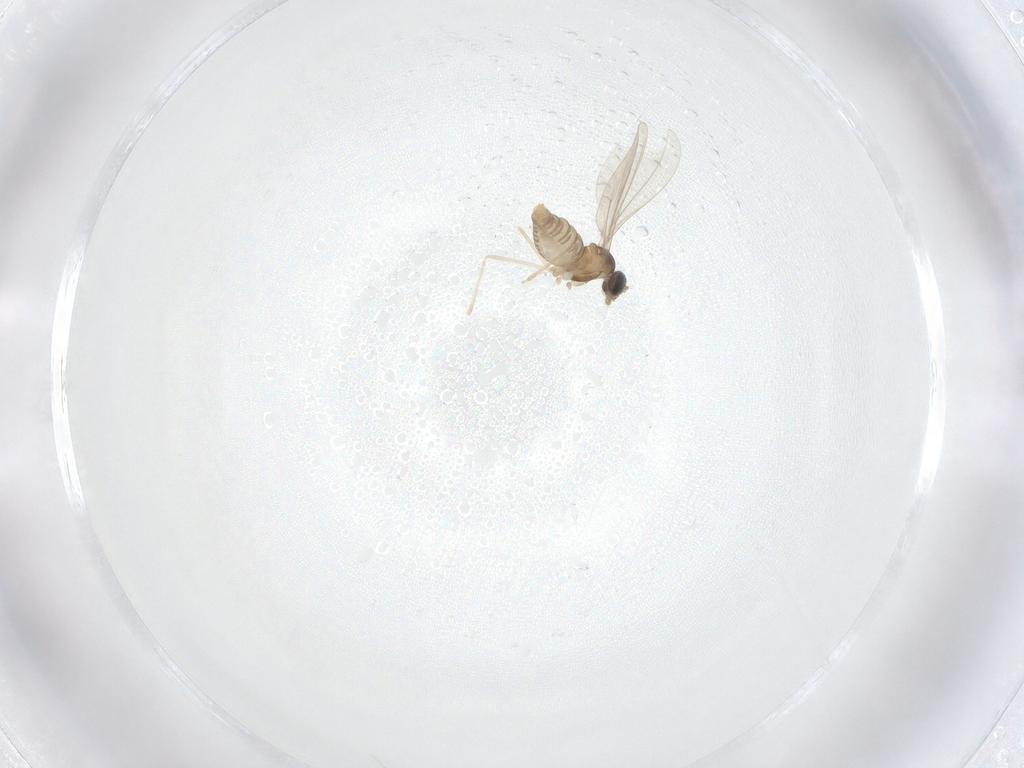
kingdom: Animalia
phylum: Arthropoda
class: Insecta
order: Diptera
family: Cecidomyiidae
